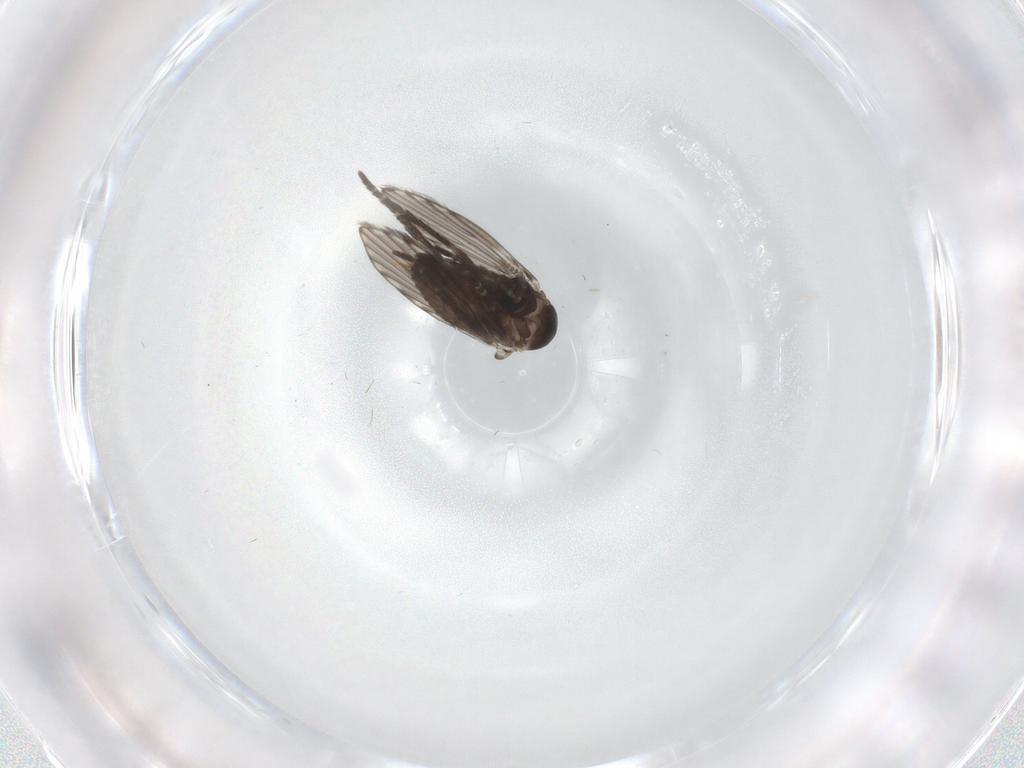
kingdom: Animalia
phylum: Arthropoda
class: Insecta
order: Diptera
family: Psychodidae
